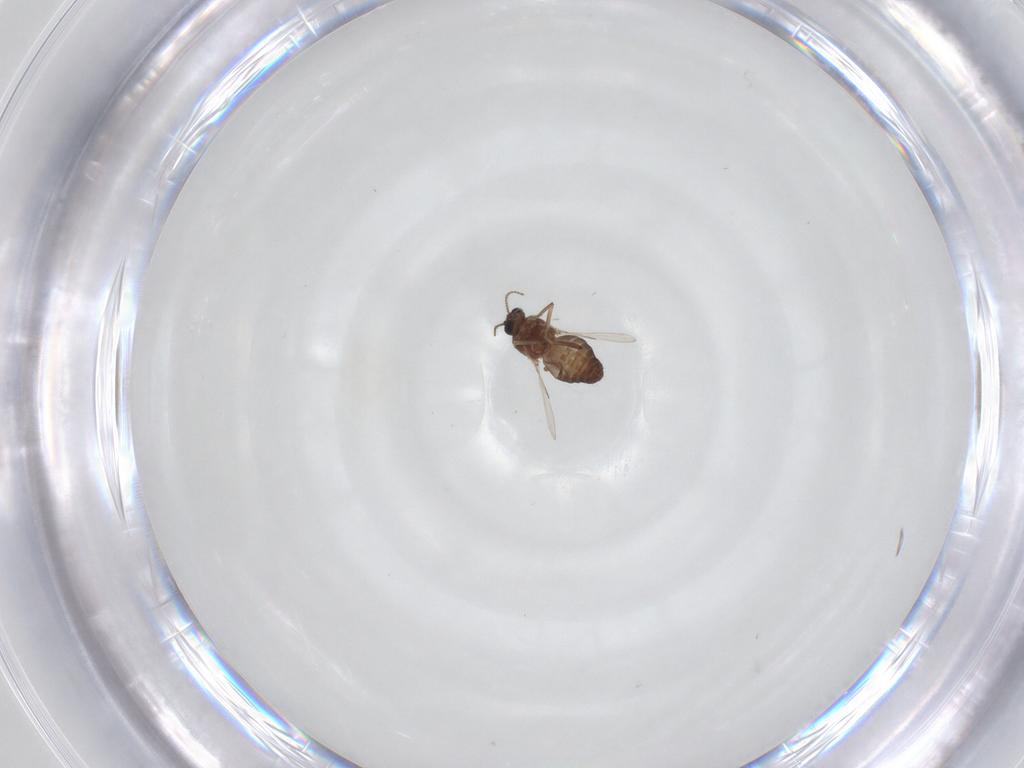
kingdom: Animalia
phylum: Arthropoda
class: Insecta
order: Diptera
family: Ceratopogonidae
